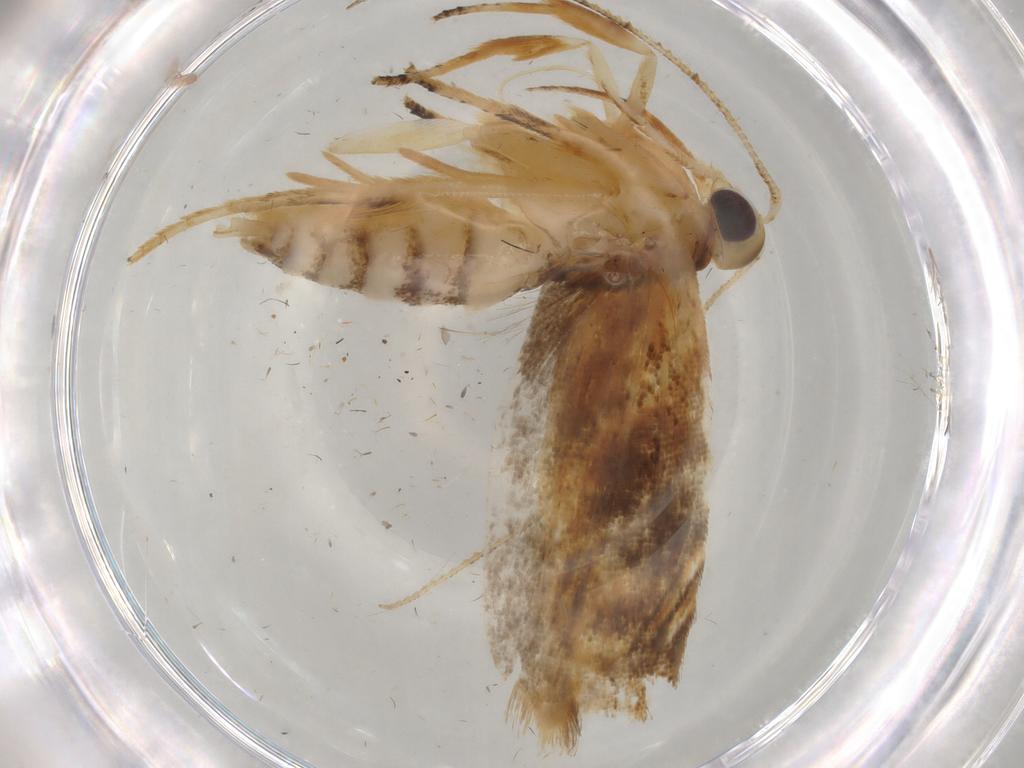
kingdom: Animalia
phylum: Arthropoda
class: Insecta
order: Lepidoptera
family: Gelechiidae
